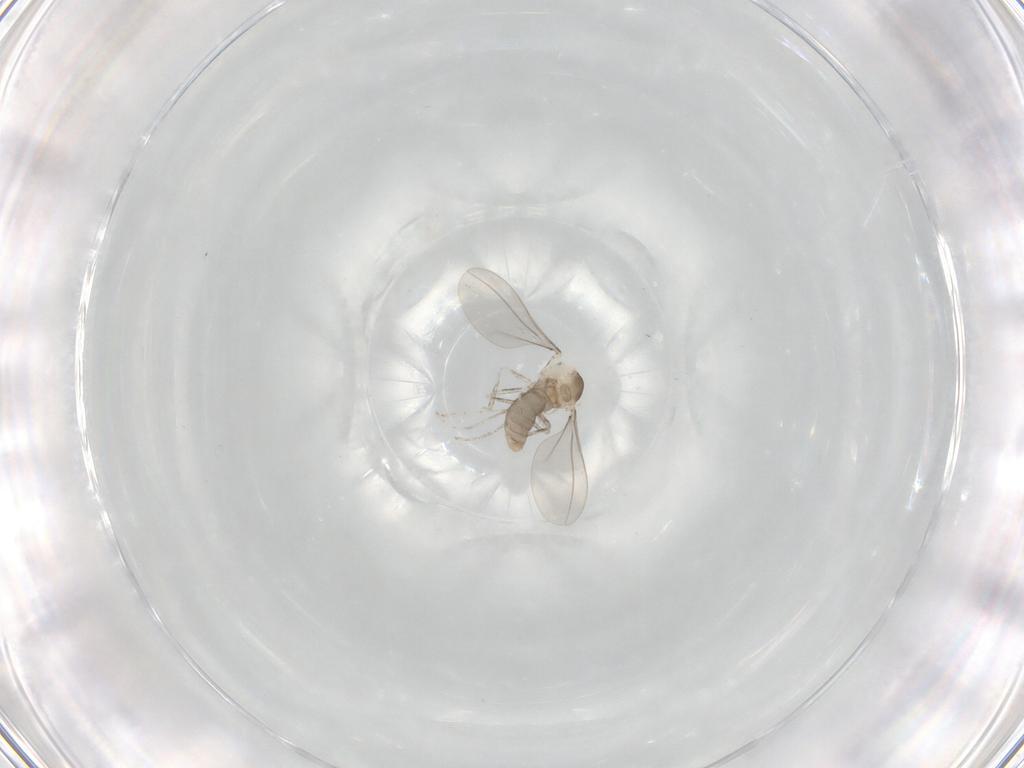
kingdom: Animalia
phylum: Arthropoda
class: Insecta
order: Diptera
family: Cecidomyiidae
